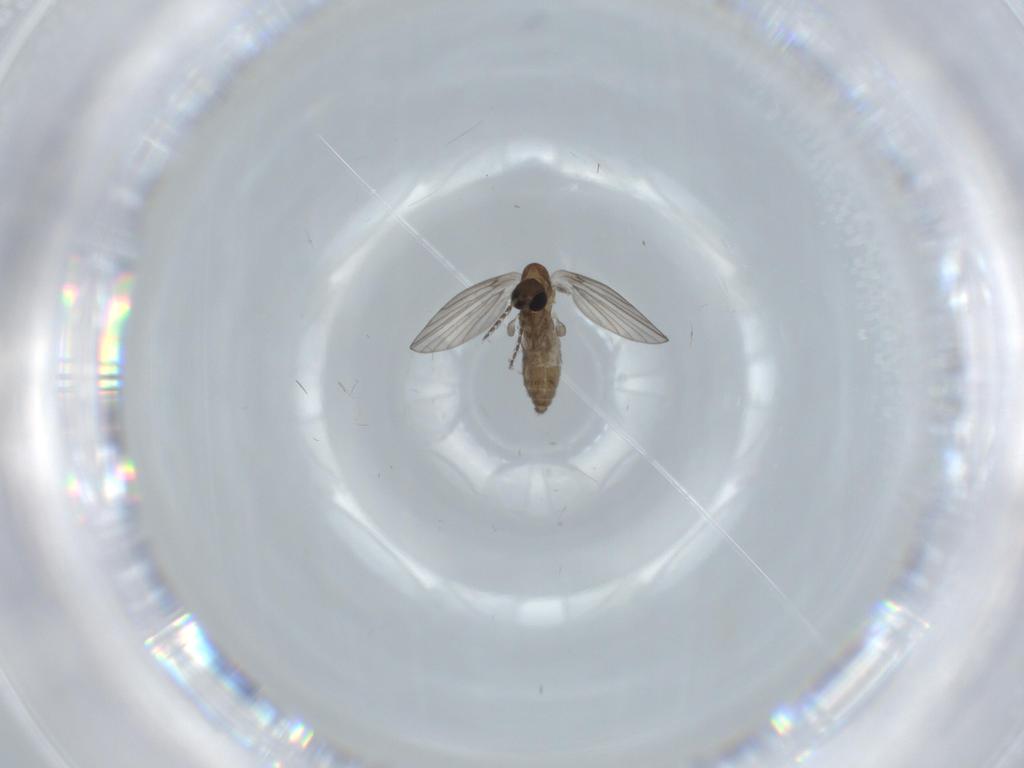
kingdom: Animalia
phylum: Arthropoda
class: Insecta
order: Diptera
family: Psychodidae
